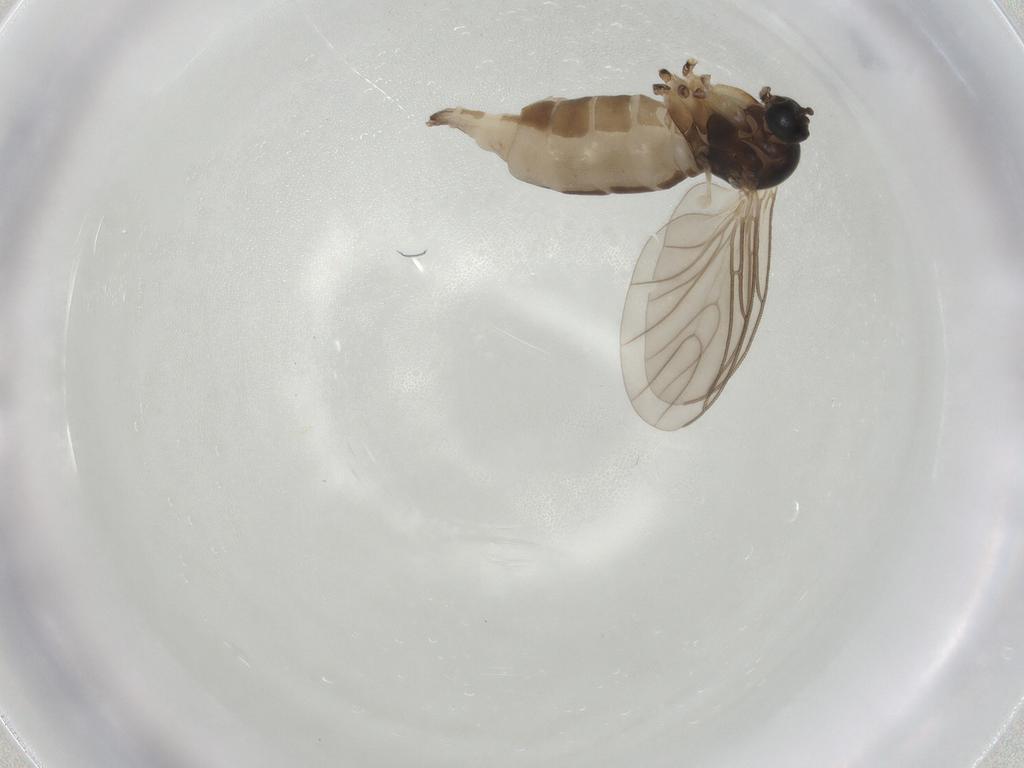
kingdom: Animalia
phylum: Arthropoda
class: Insecta
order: Diptera
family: Sciaridae
